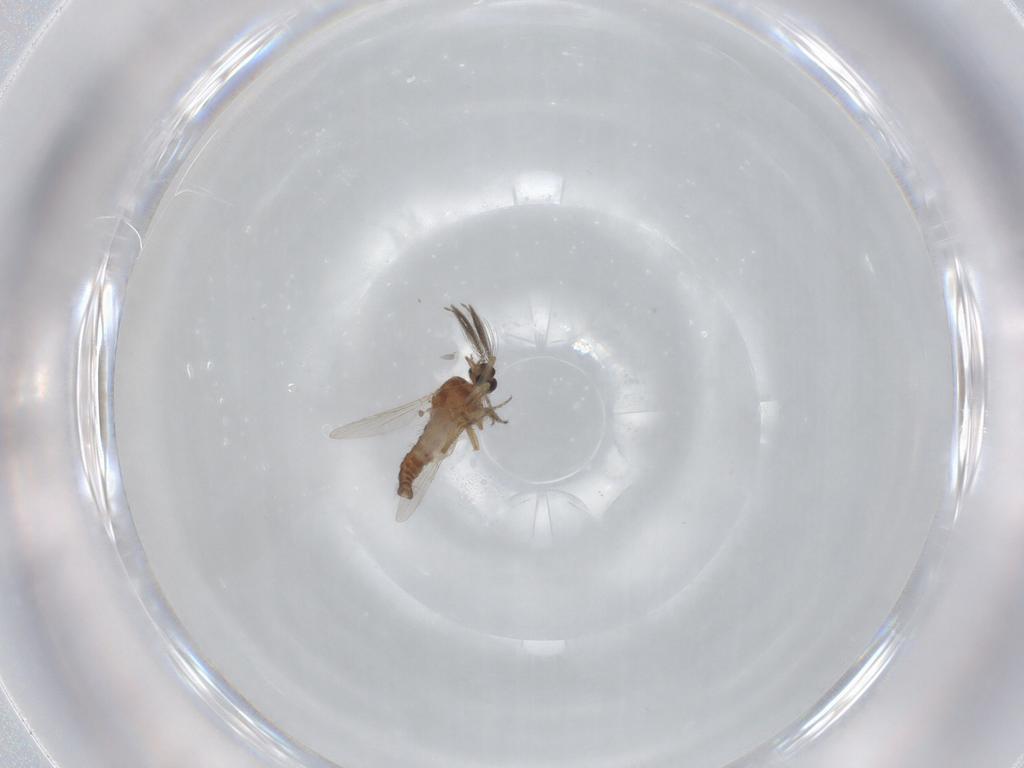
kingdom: Animalia
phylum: Arthropoda
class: Insecta
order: Diptera
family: Ceratopogonidae
